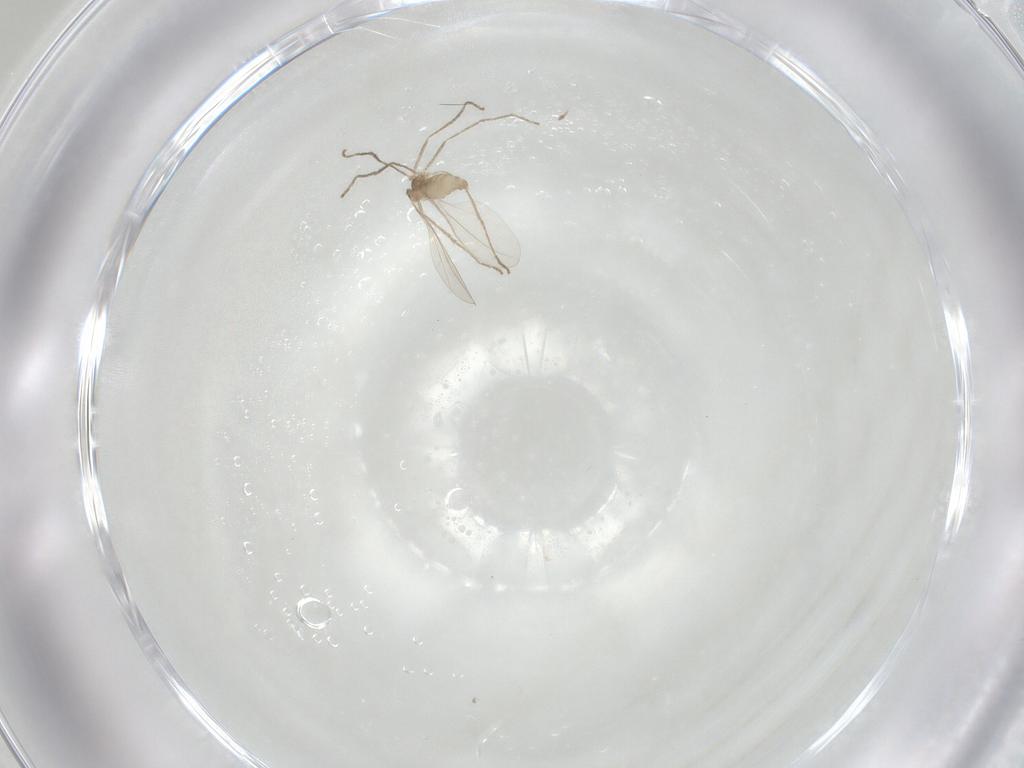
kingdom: Animalia
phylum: Arthropoda
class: Insecta
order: Diptera
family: Cecidomyiidae
